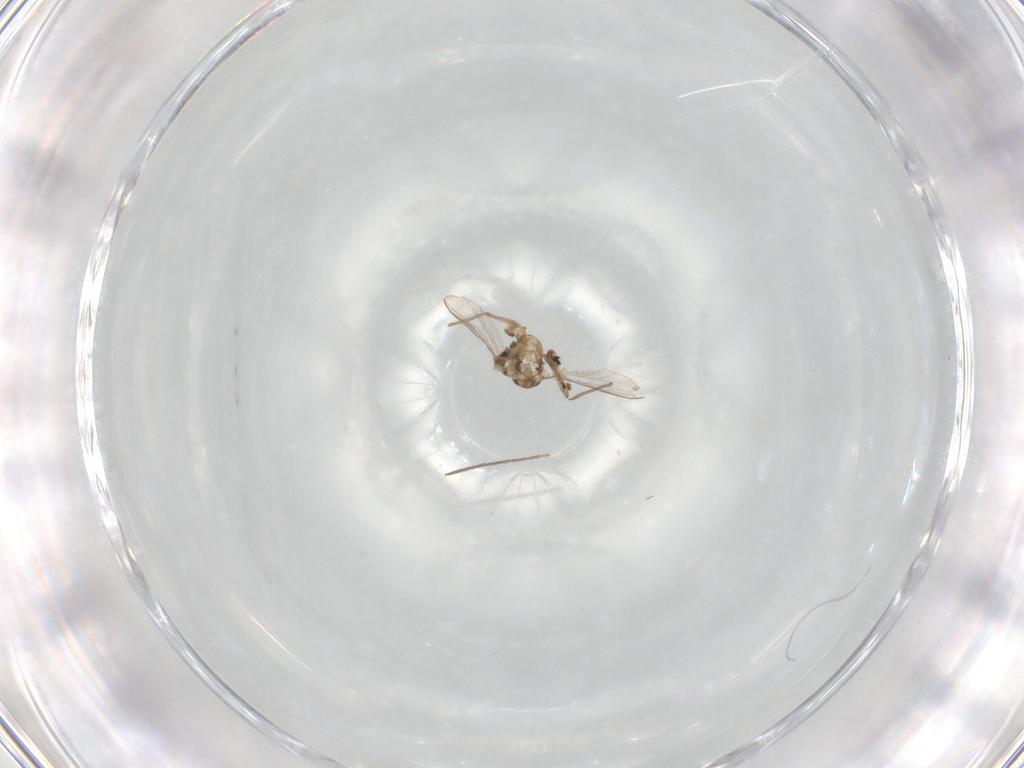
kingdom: Animalia
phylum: Arthropoda
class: Insecta
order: Diptera
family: Chironomidae
